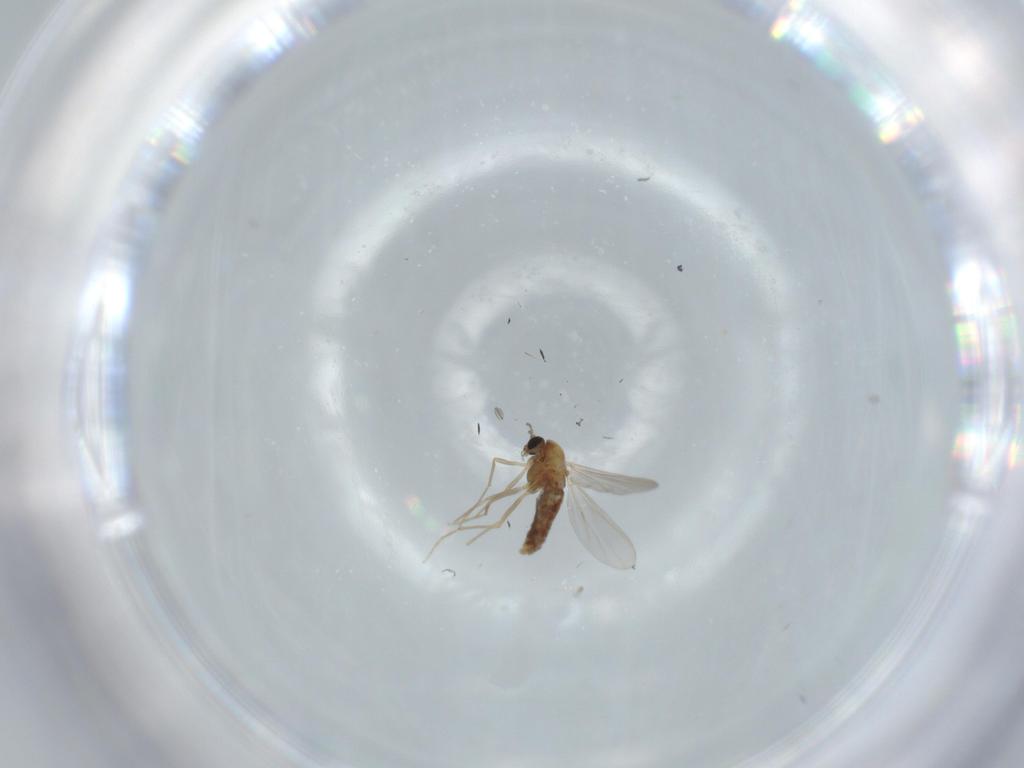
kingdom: Animalia
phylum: Arthropoda
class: Insecta
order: Diptera
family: Chironomidae
